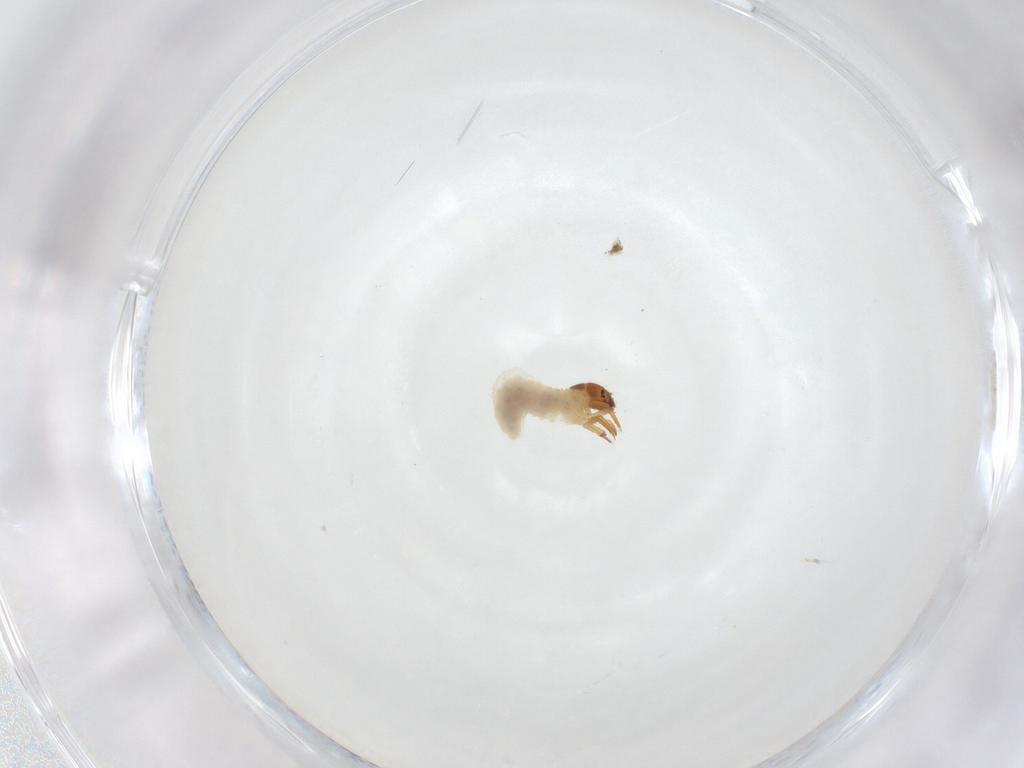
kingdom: Animalia
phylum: Arthropoda
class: Insecta
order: Coleoptera
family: Chrysomelidae
